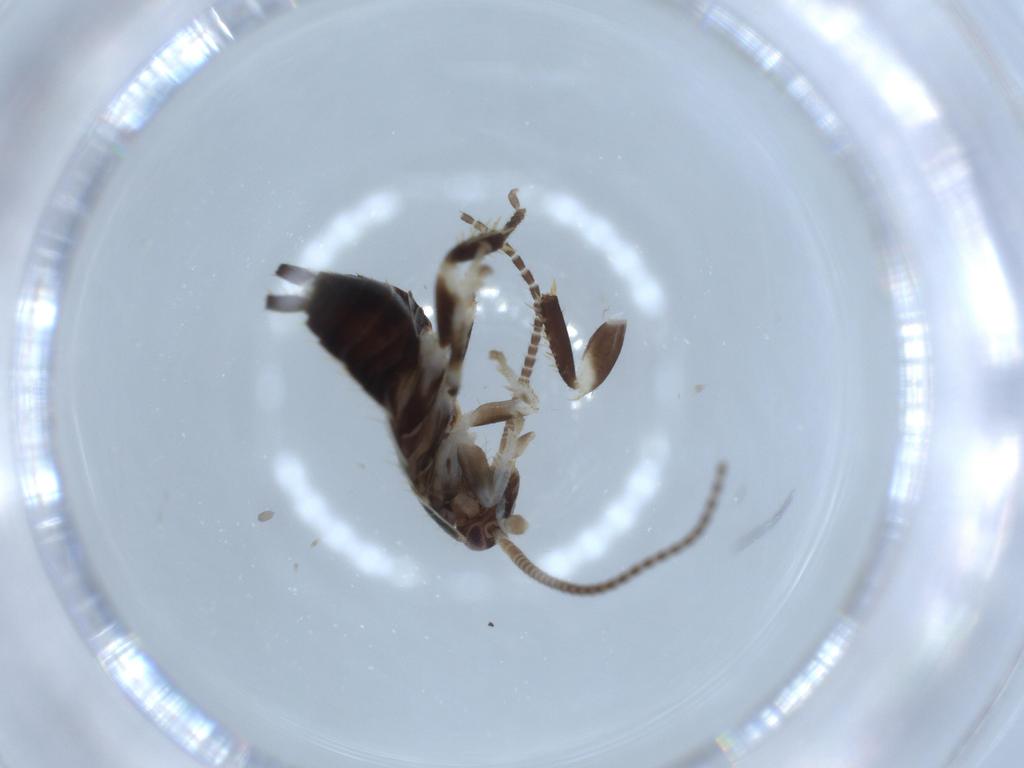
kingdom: Animalia
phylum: Arthropoda
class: Insecta
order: Blattodea
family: Ectobiidae
